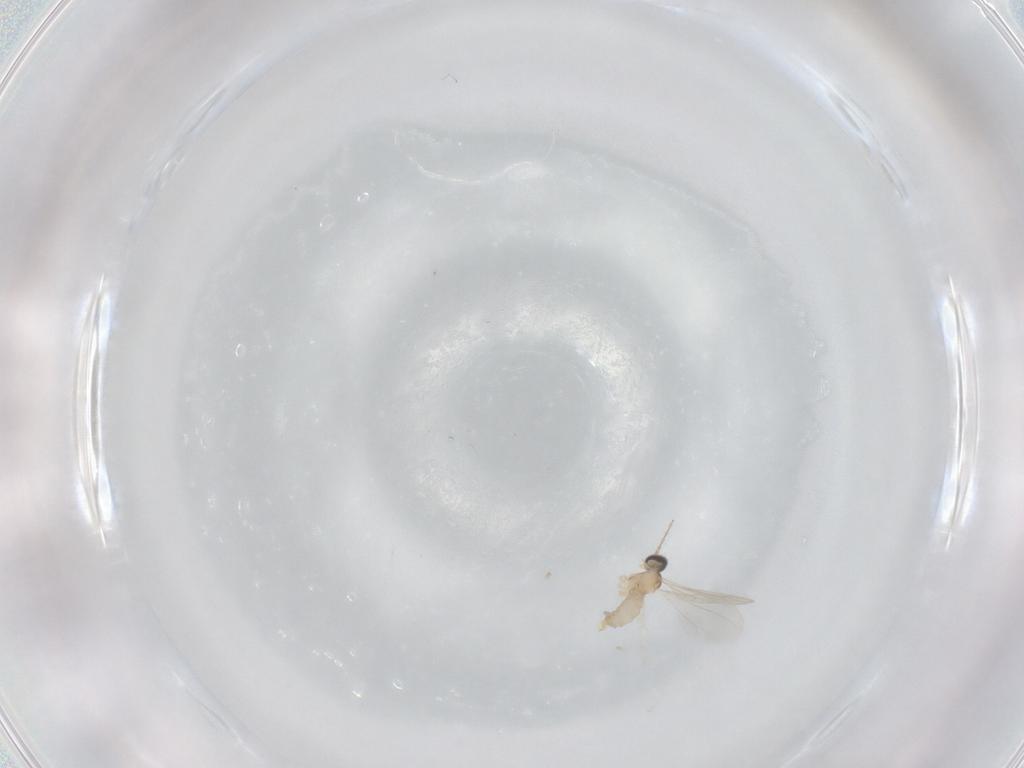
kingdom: Animalia
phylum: Arthropoda
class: Insecta
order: Diptera
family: Cecidomyiidae
